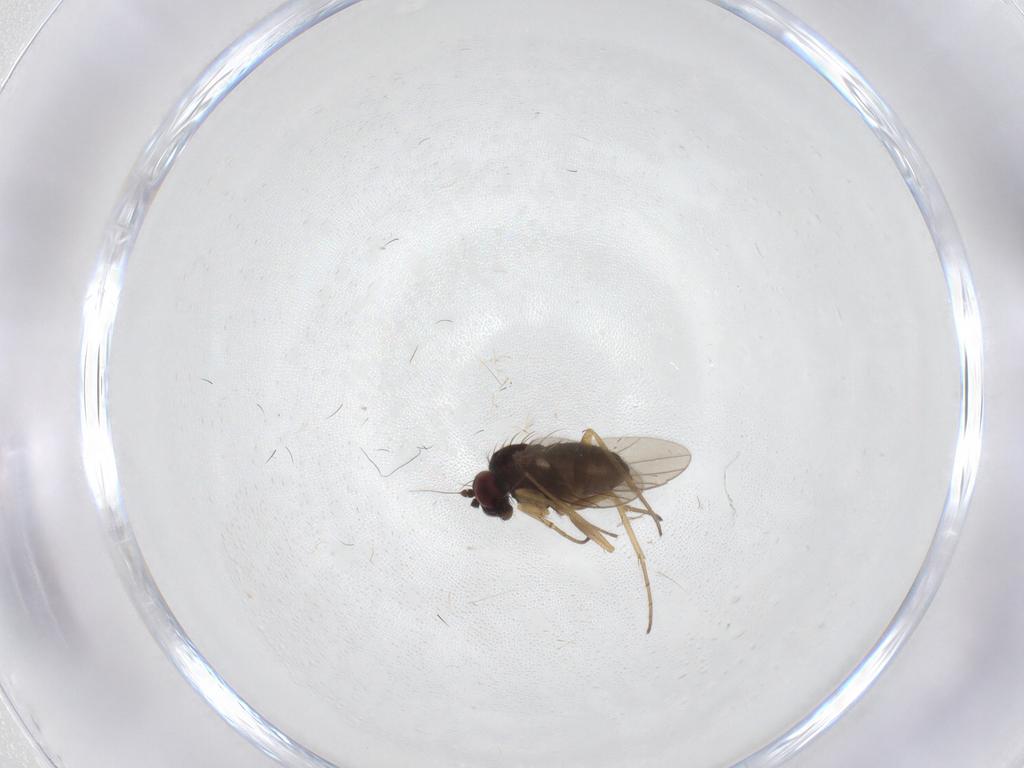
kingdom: Animalia
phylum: Arthropoda
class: Insecta
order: Diptera
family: Dolichopodidae
